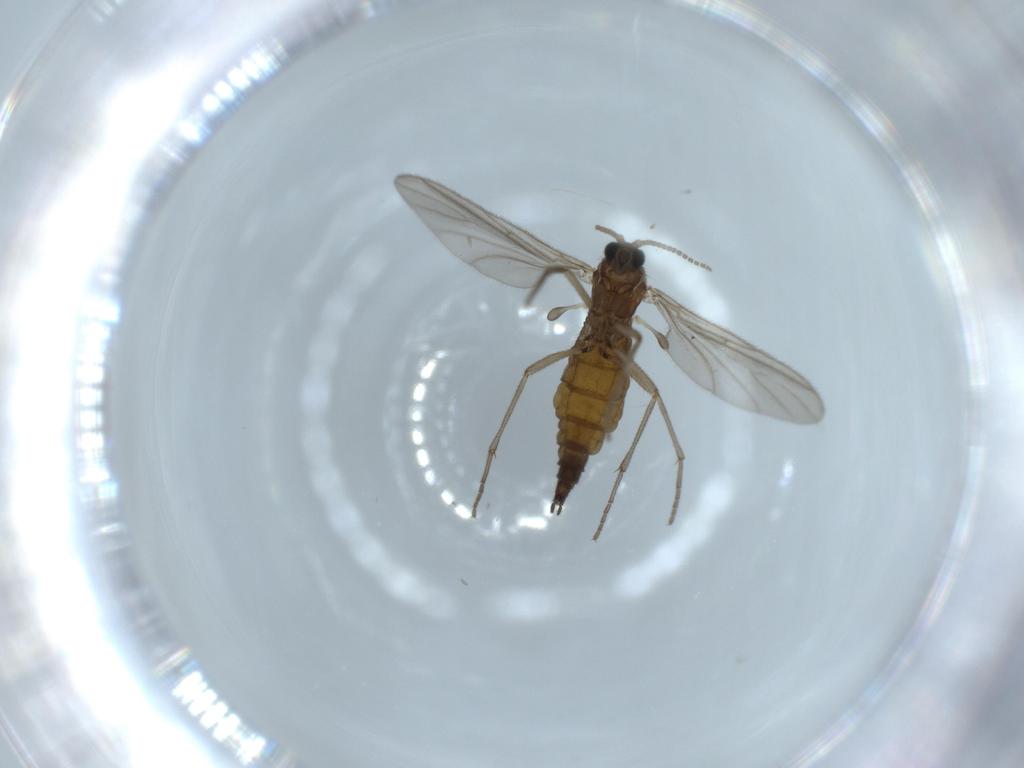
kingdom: Animalia
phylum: Arthropoda
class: Insecta
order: Diptera
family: Sciaridae
